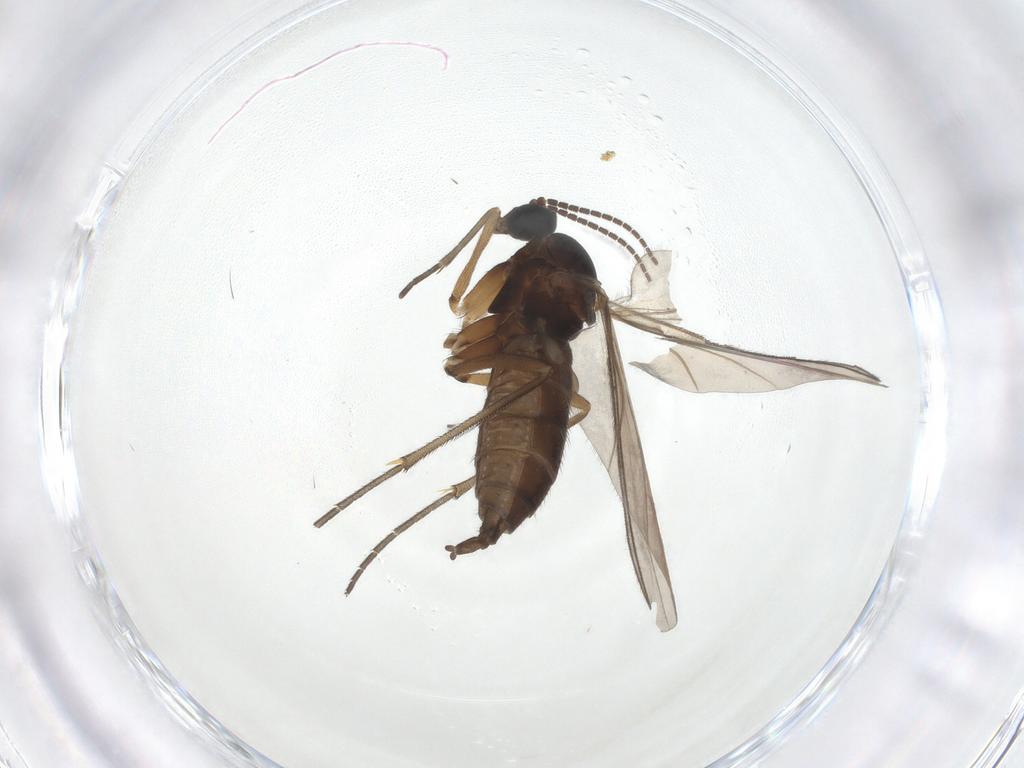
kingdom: Animalia
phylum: Arthropoda
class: Insecta
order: Diptera
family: Sciaridae
